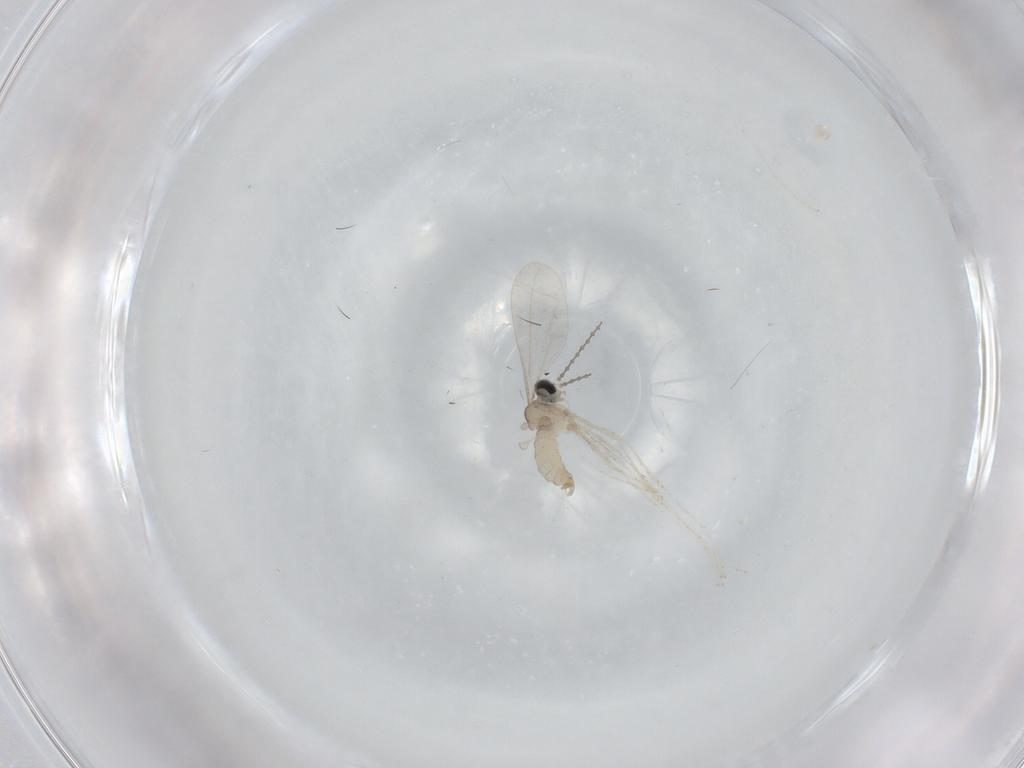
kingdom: Animalia
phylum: Arthropoda
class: Insecta
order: Diptera
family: Cecidomyiidae
